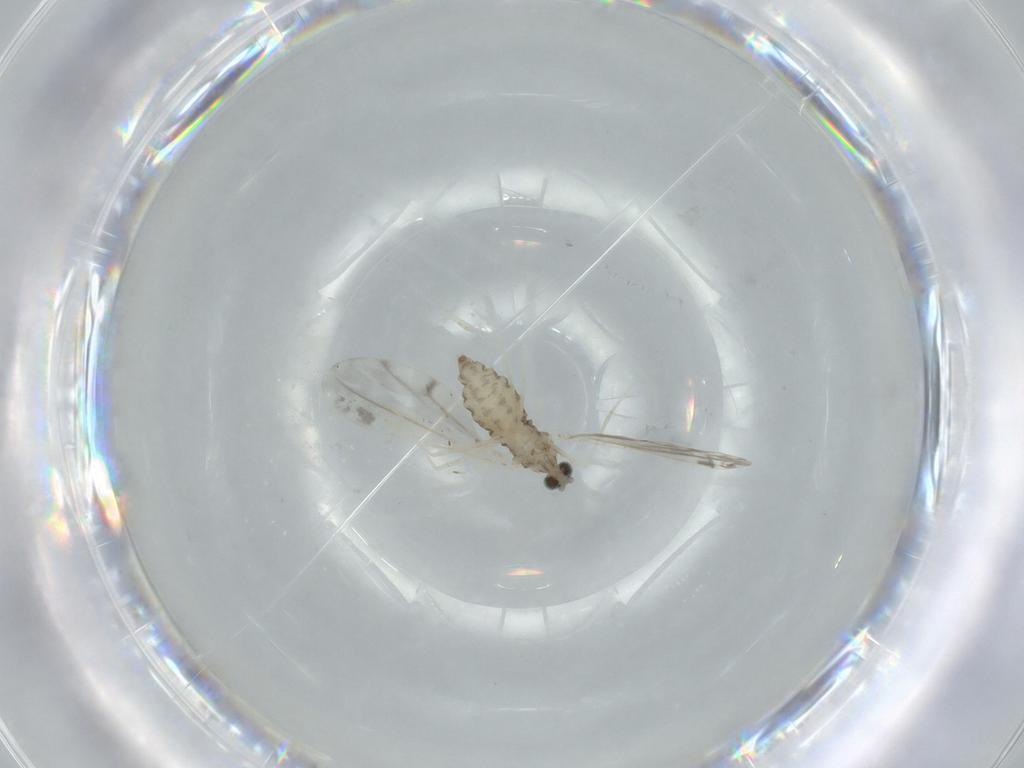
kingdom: Animalia
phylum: Arthropoda
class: Insecta
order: Diptera
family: Cecidomyiidae
